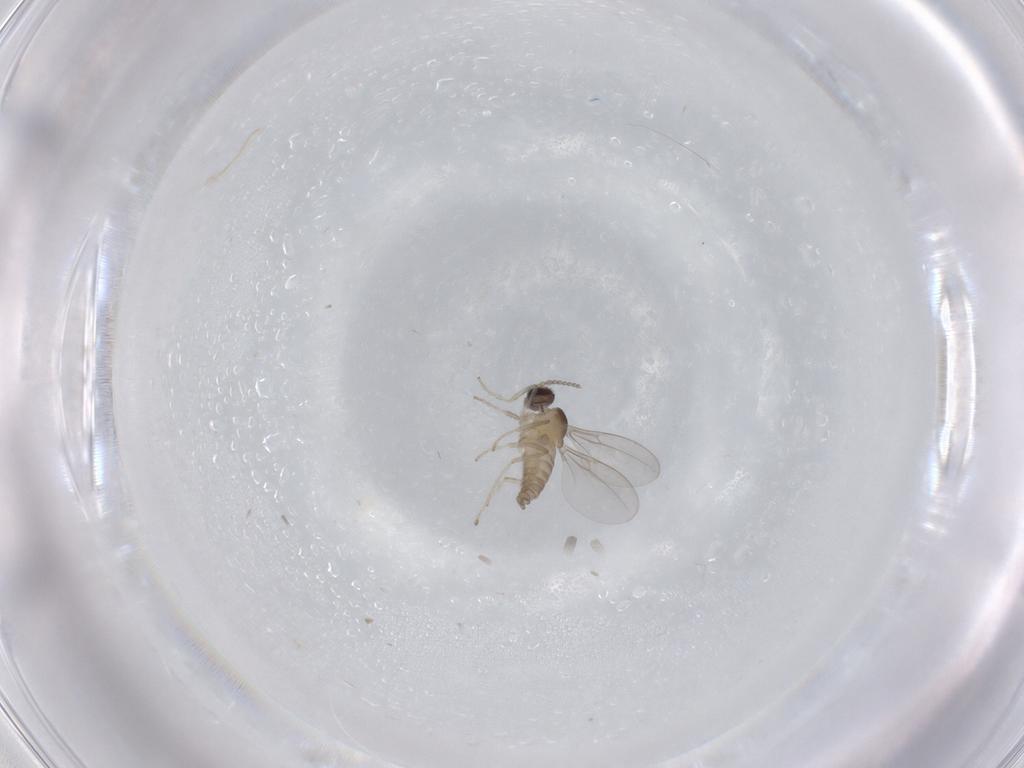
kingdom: Animalia
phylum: Arthropoda
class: Insecta
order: Diptera
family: Cecidomyiidae
